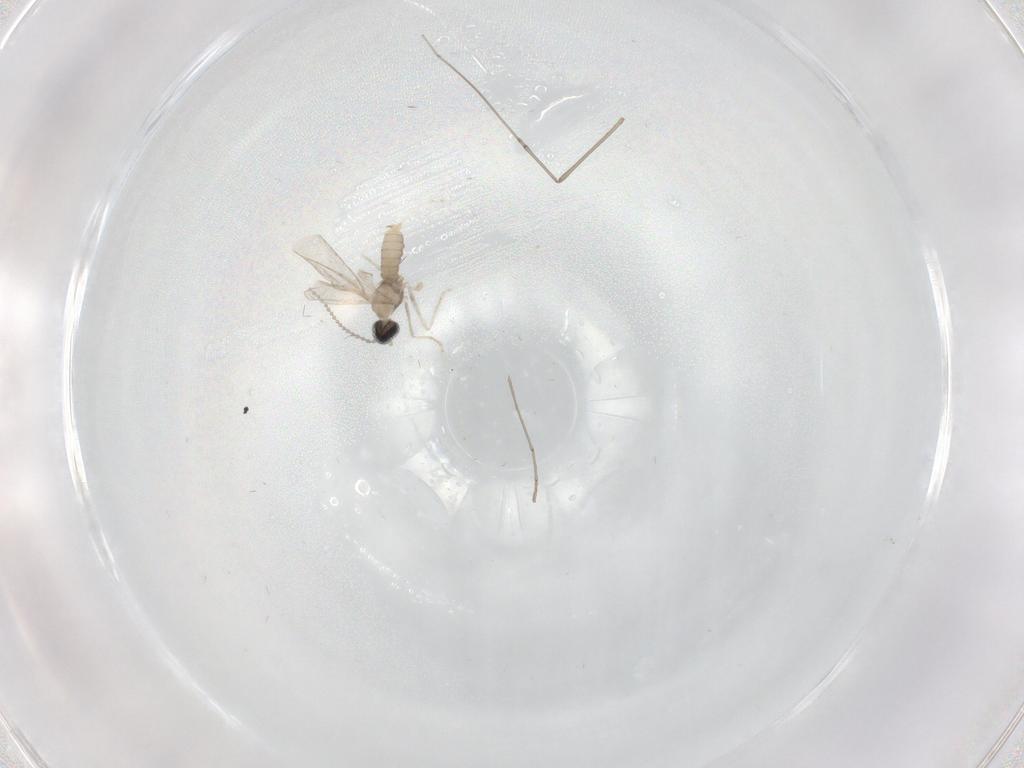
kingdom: Animalia
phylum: Arthropoda
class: Insecta
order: Diptera
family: Cecidomyiidae
